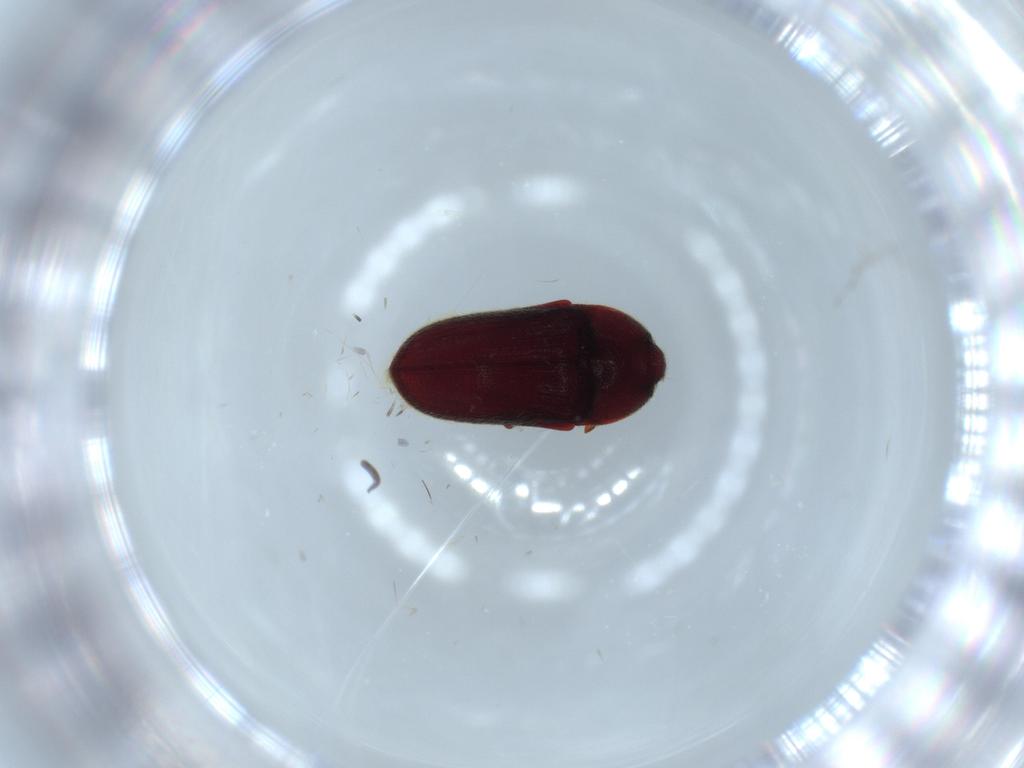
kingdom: Animalia
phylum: Arthropoda
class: Insecta
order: Coleoptera
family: Throscidae
